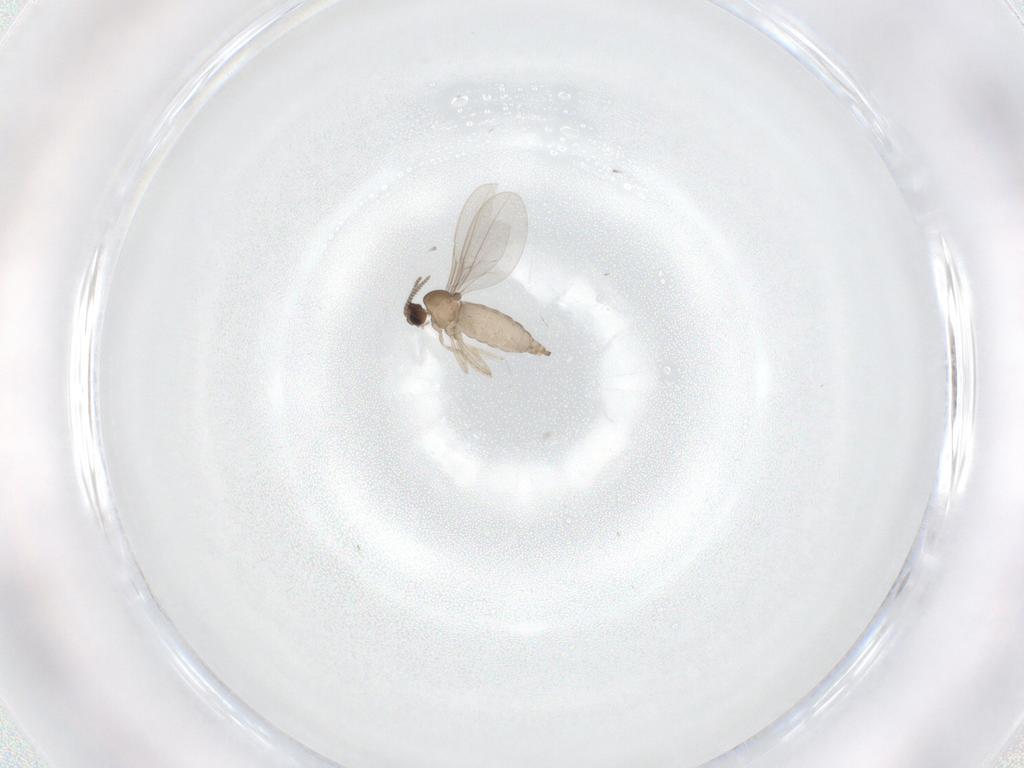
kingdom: Animalia
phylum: Arthropoda
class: Insecta
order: Diptera
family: Cecidomyiidae
